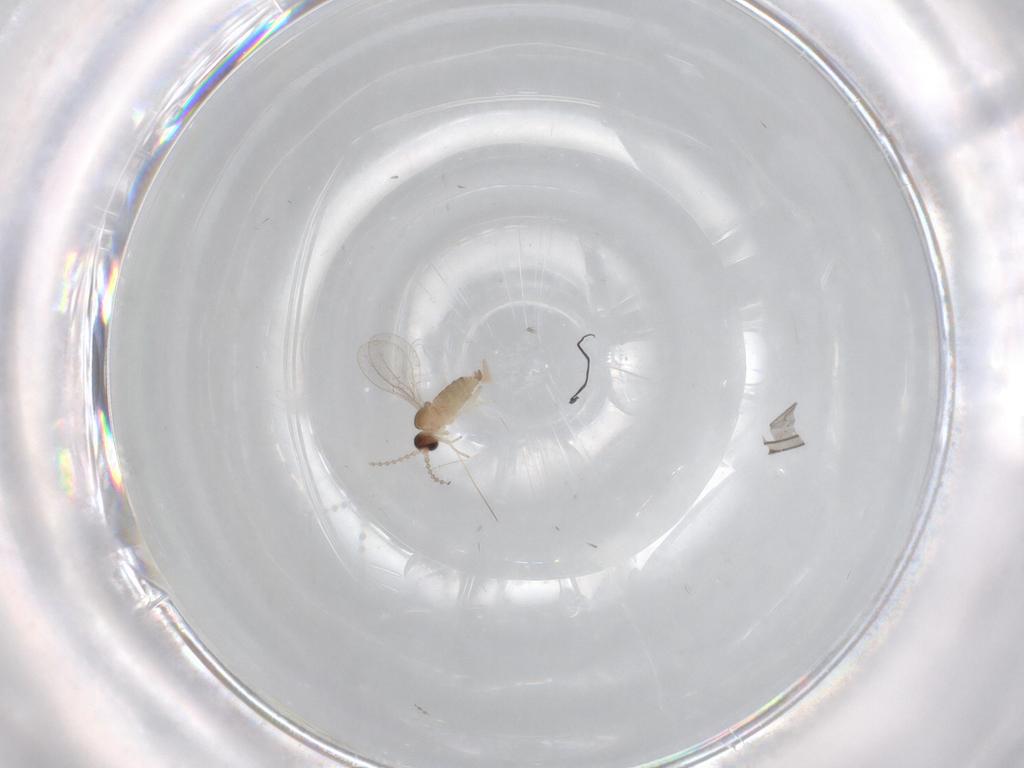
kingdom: Animalia
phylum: Arthropoda
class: Insecta
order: Diptera
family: Cecidomyiidae
